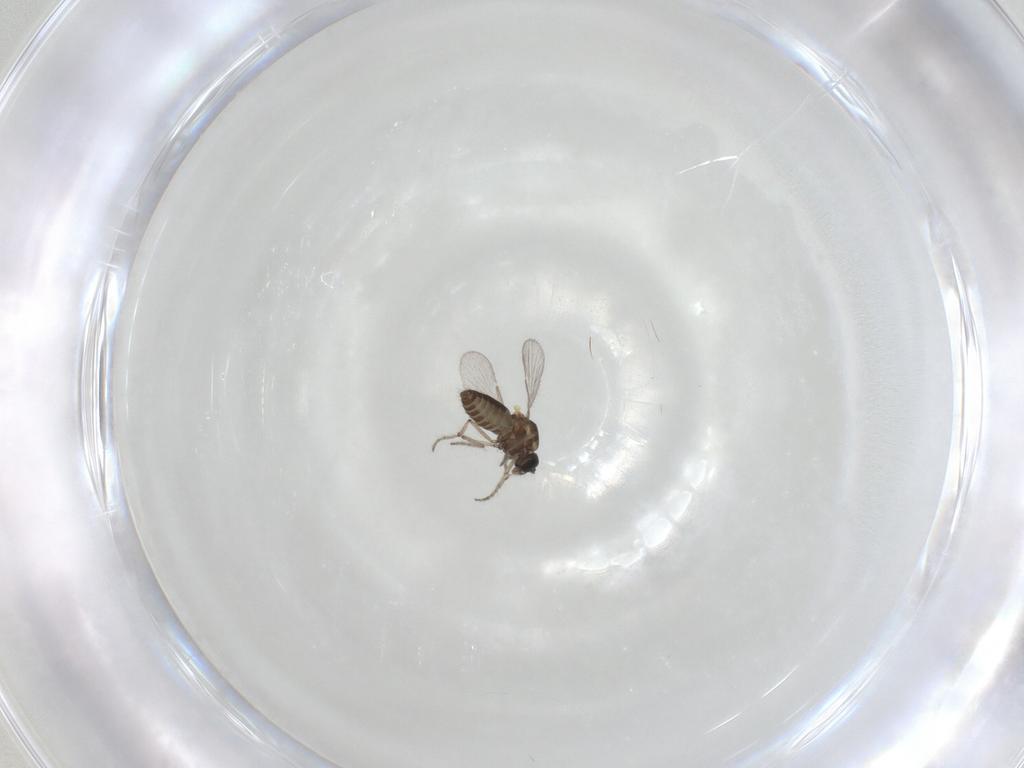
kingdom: Animalia
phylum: Arthropoda
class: Insecta
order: Diptera
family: Ceratopogonidae
